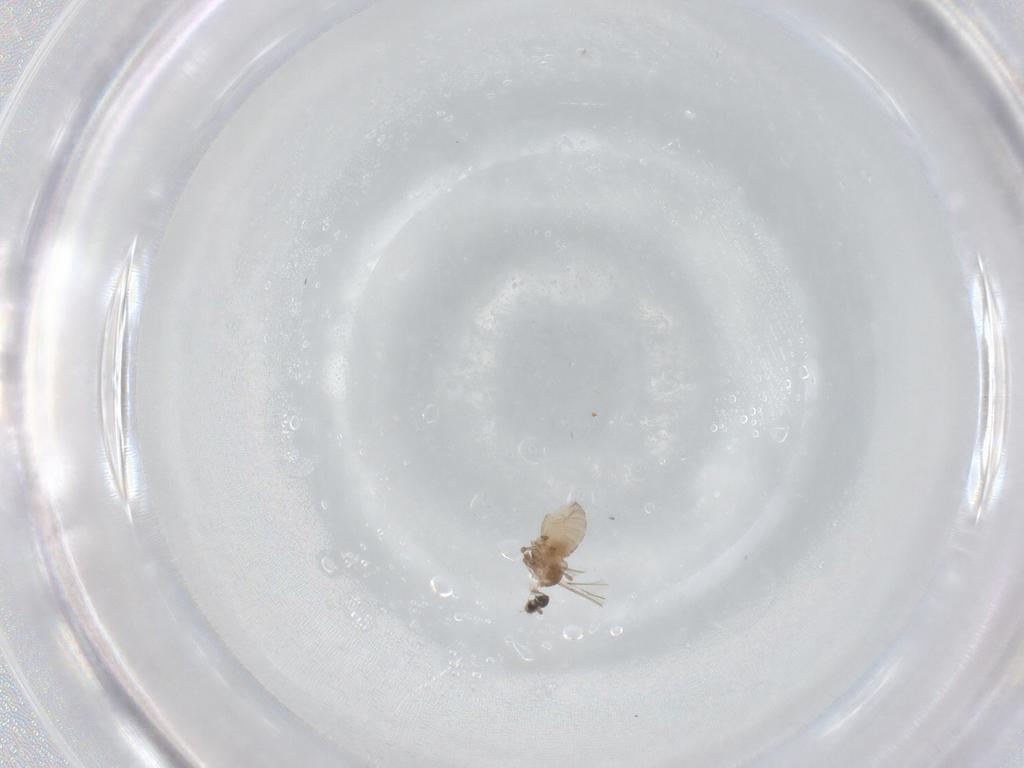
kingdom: Animalia
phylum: Arthropoda
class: Insecta
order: Diptera
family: Cecidomyiidae
